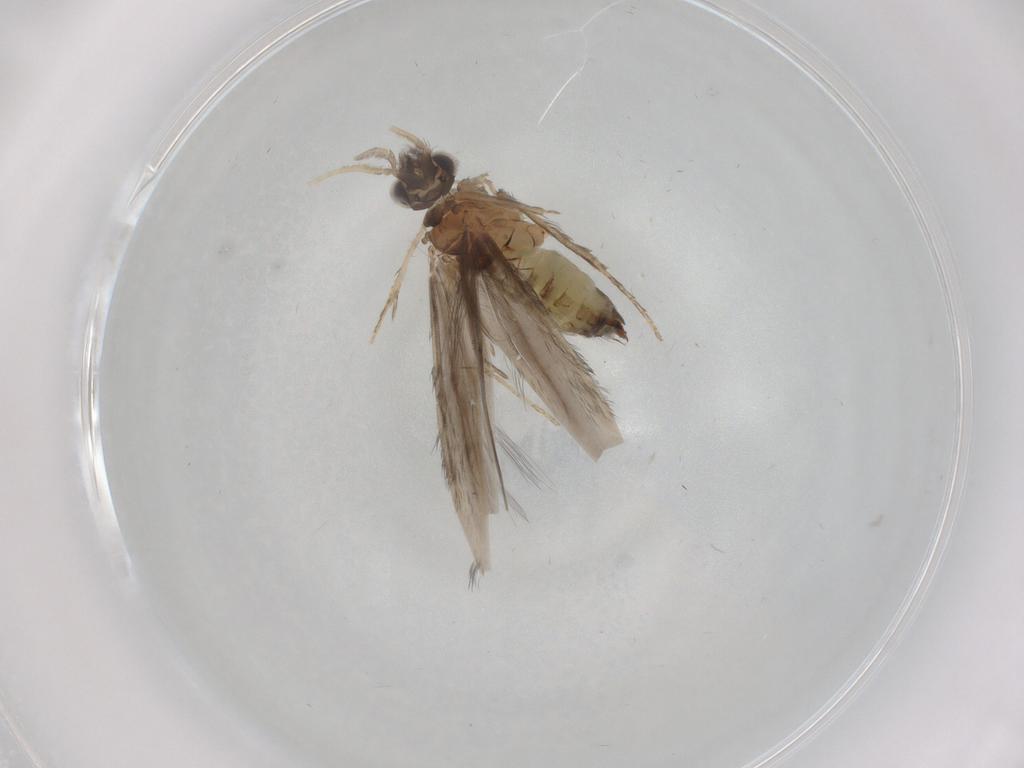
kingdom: Animalia
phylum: Arthropoda
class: Insecta
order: Trichoptera
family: Hydroptilidae
